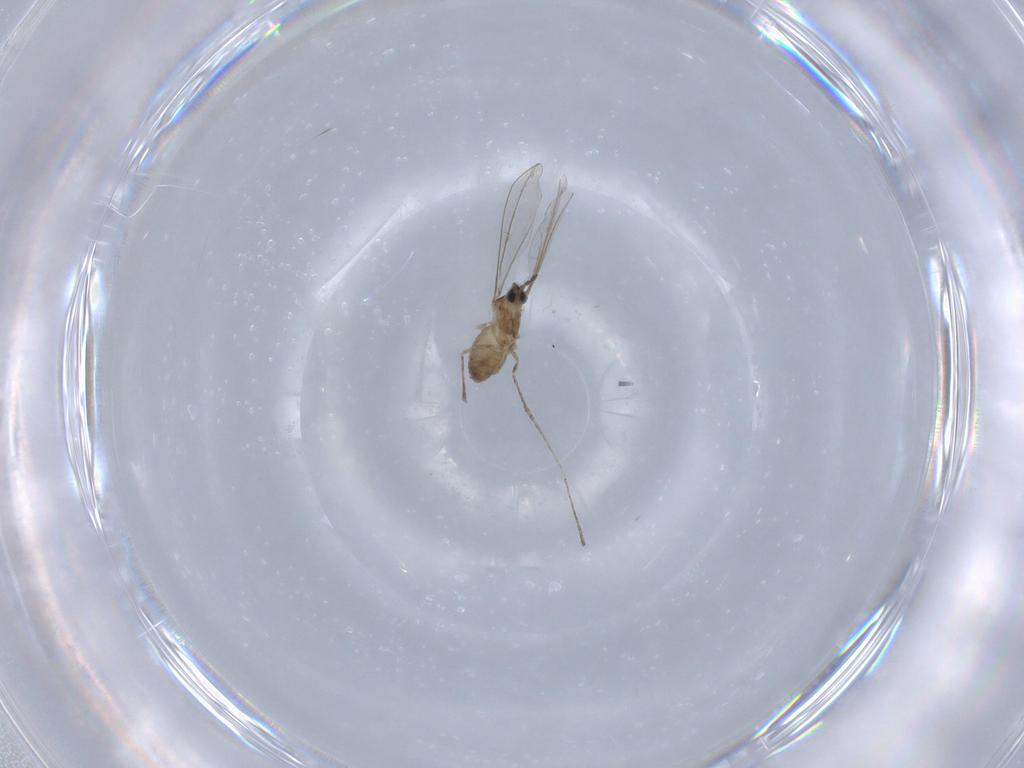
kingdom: Animalia
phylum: Arthropoda
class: Insecta
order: Diptera
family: Cecidomyiidae
